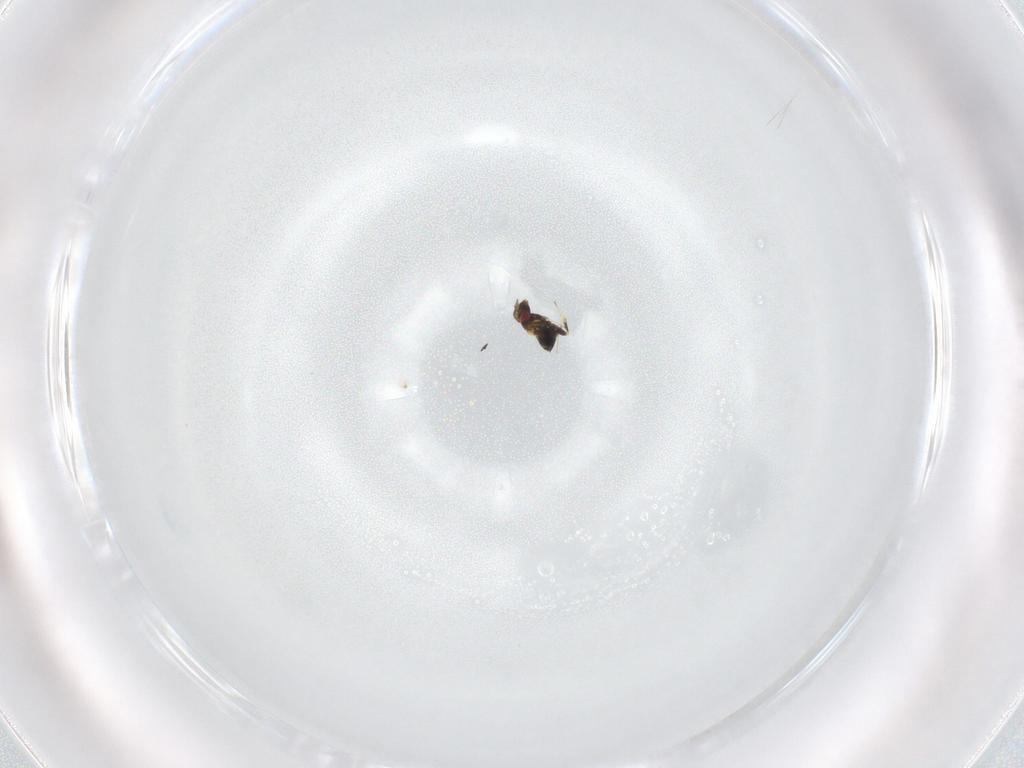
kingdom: Animalia
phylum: Arthropoda
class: Insecta
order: Hymenoptera
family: Trichogrammatidae
